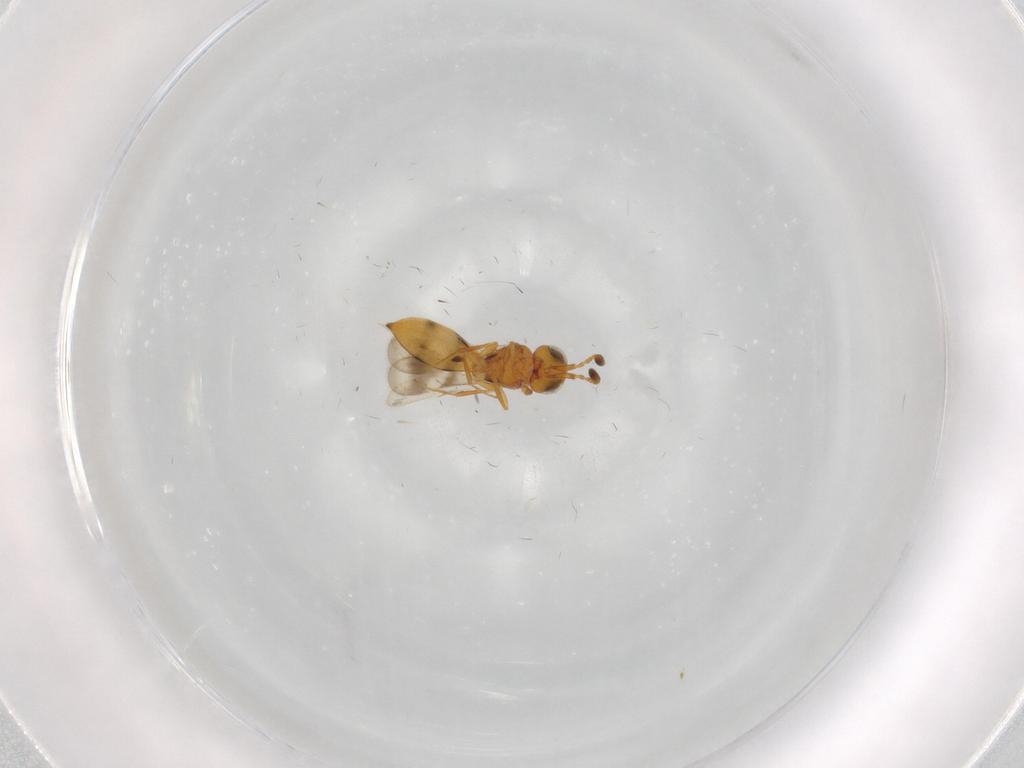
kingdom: Animalia
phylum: Arthropoda
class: Insecta
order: Hymenoptera
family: Scelionidae
